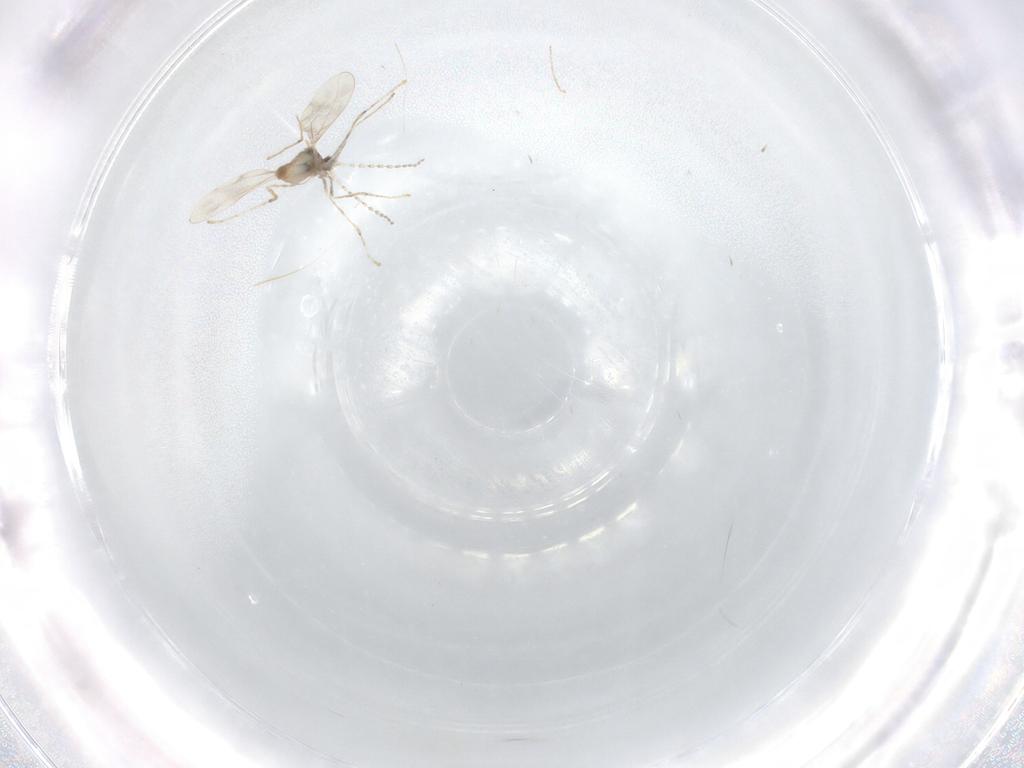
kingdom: Animalia
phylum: Arthropoda
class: Insecta
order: Diptera
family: Cecidomyiidae
